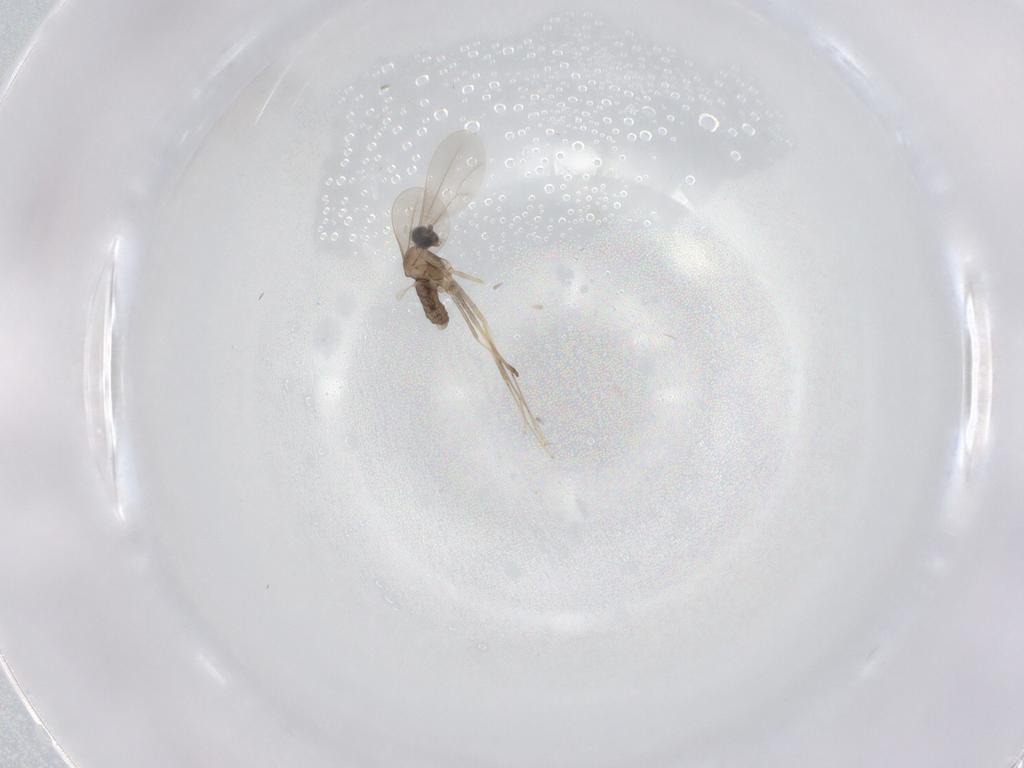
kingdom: Animalia
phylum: Arthropoda
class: Insecta
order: Diptera
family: Cecidomyiidae
